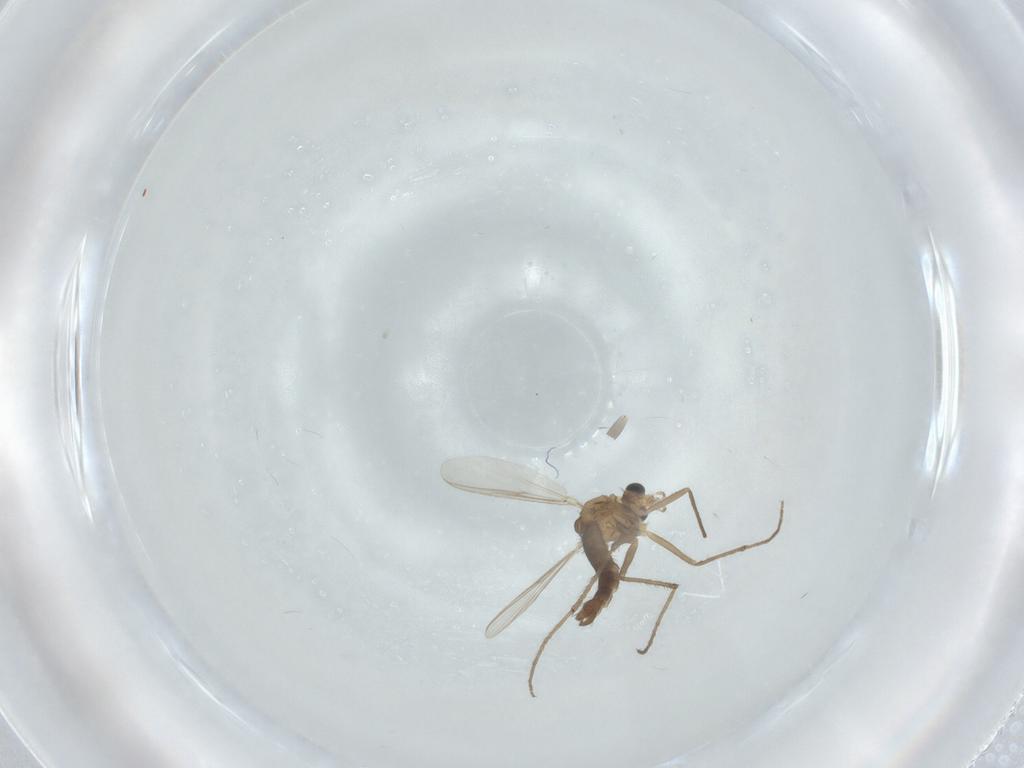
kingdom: Animalia
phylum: Arthropoda
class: Insecta
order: Diptera
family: Chironomidae
